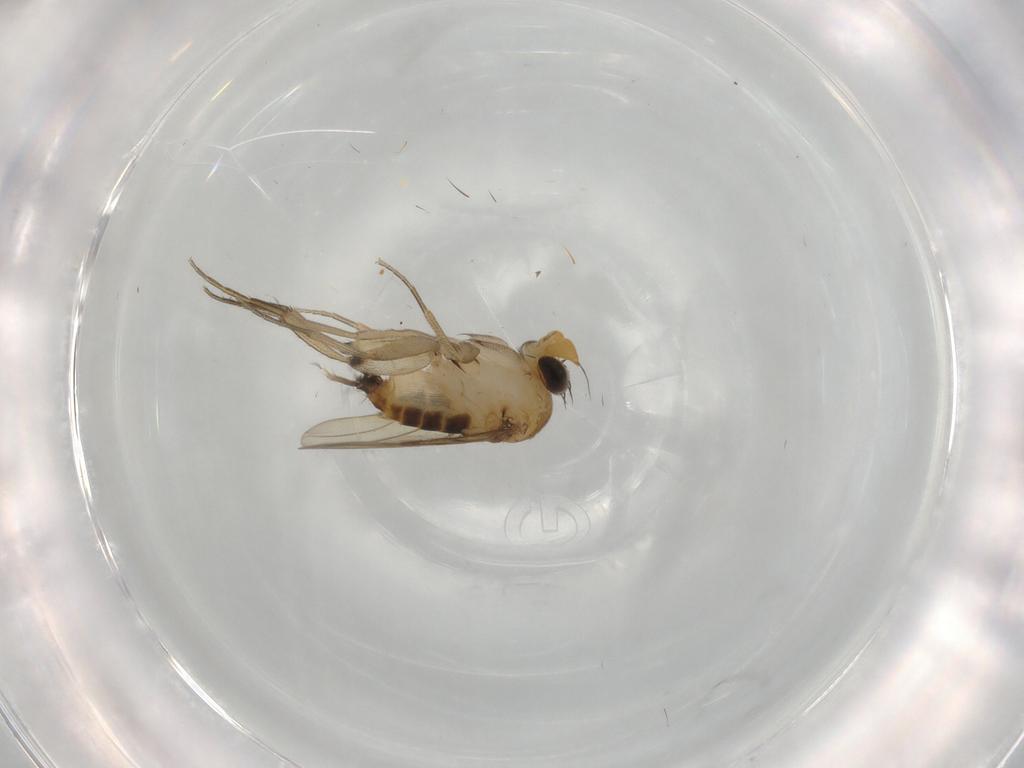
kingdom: Animalia
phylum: Arthropoda
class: Insecta
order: Diptera
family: Phoridae
